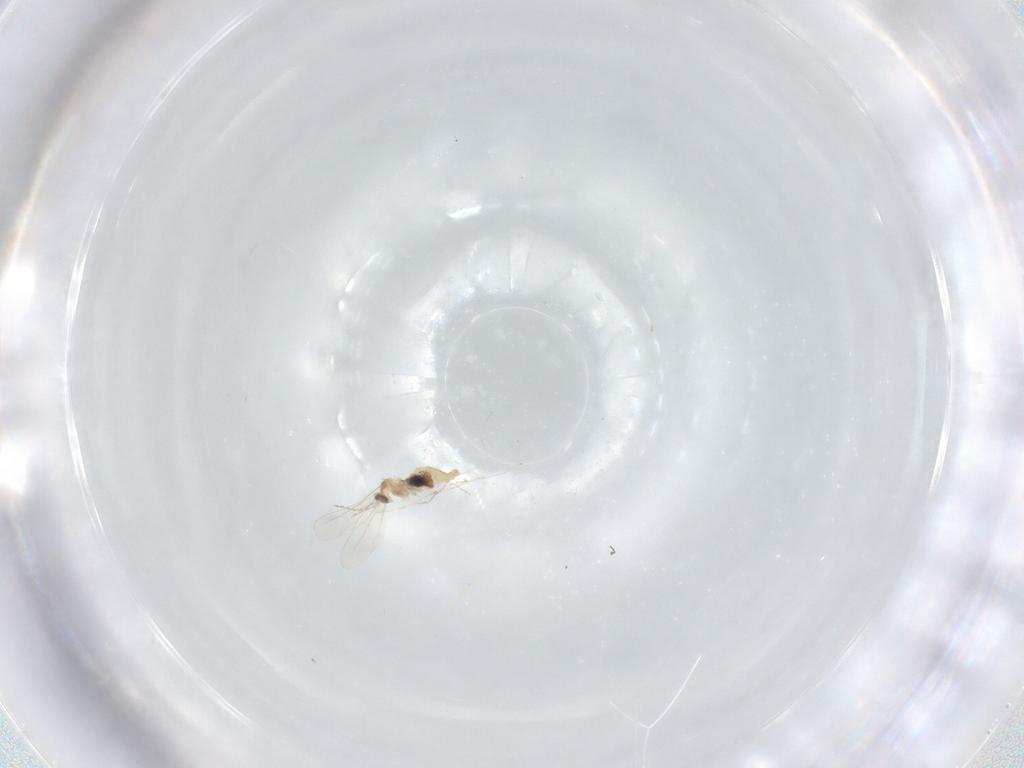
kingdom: Animalia
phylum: Arthropoda
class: Insecta
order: Diptera
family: Cecidomyiidae
